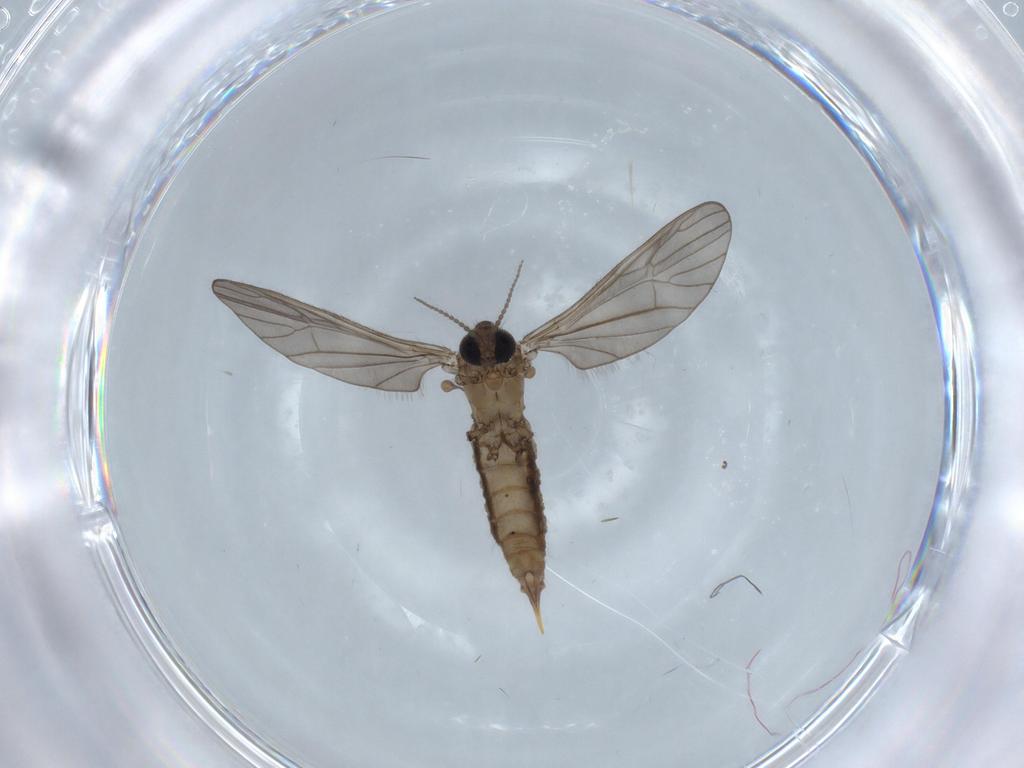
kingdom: Animalia
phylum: Arthropoda
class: Insecta
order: Diptera
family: Limoniidae
